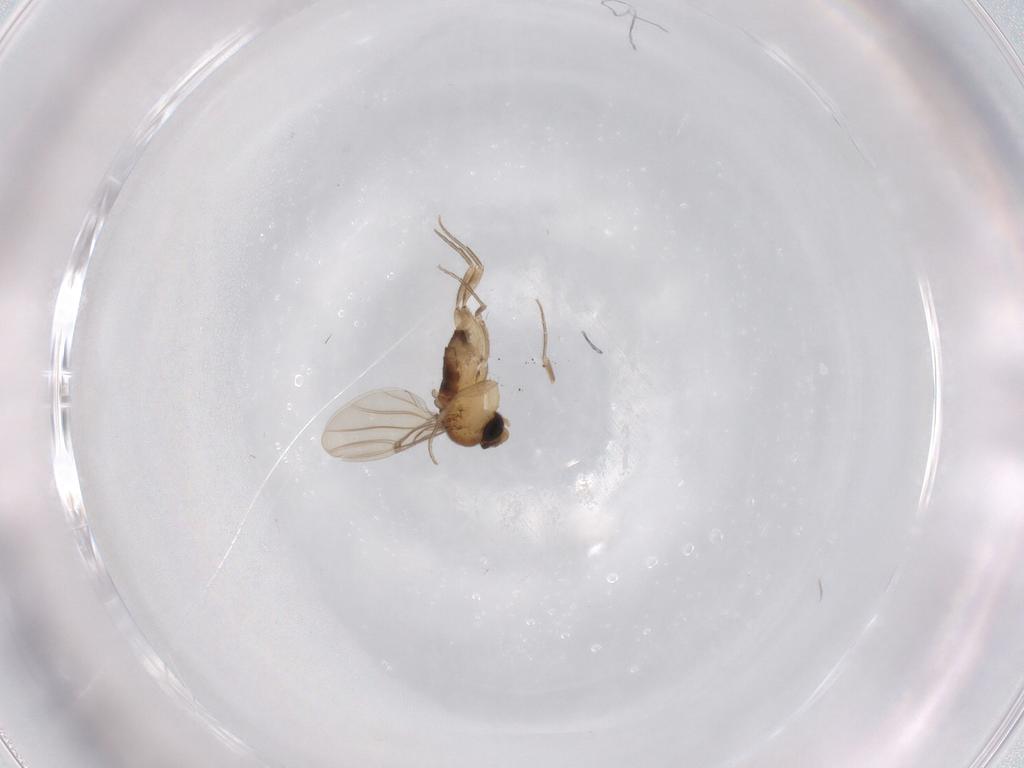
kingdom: Animalia
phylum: Arthropoda
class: Insecta
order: Diptera
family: Phoridae
